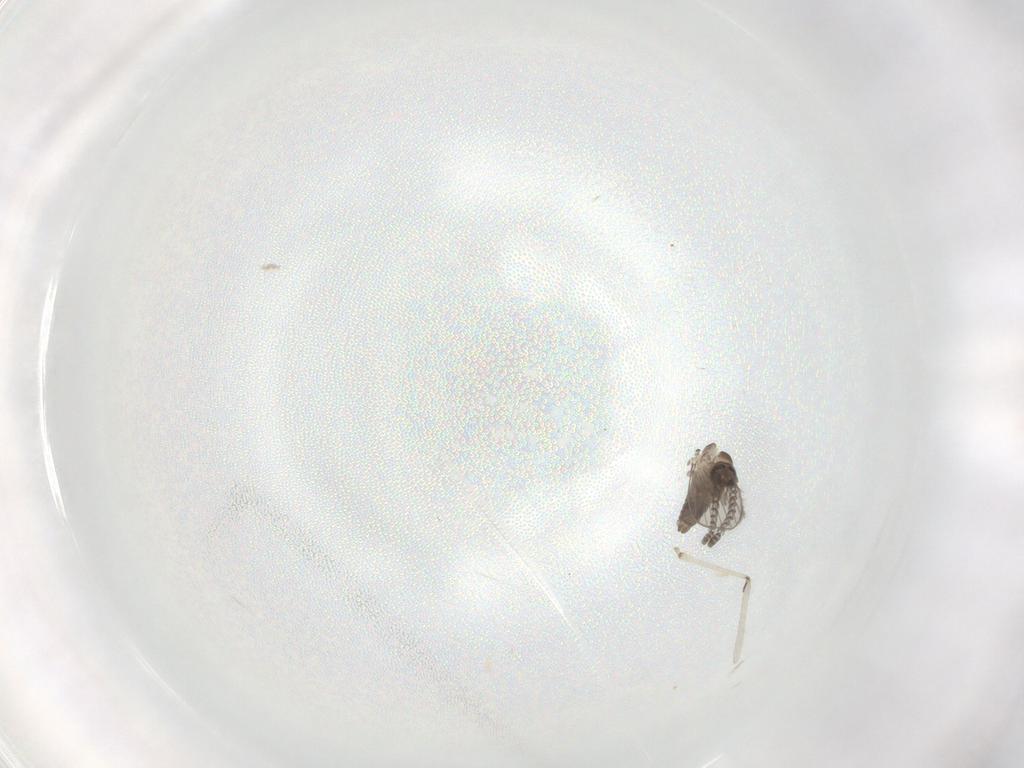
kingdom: Animalia
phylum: Arthropoda
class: Insecta
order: Diptera
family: Psychodidae
